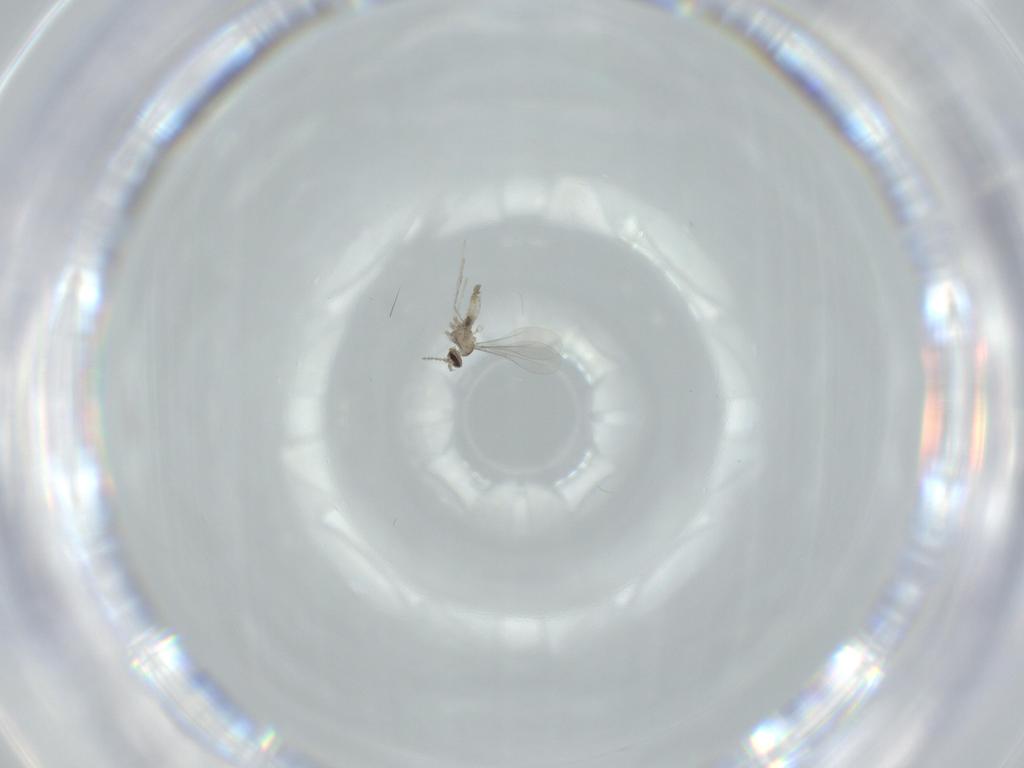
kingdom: Animalia
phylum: Arthropoda
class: Insecta
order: Diptera
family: Cecidomyiidae
